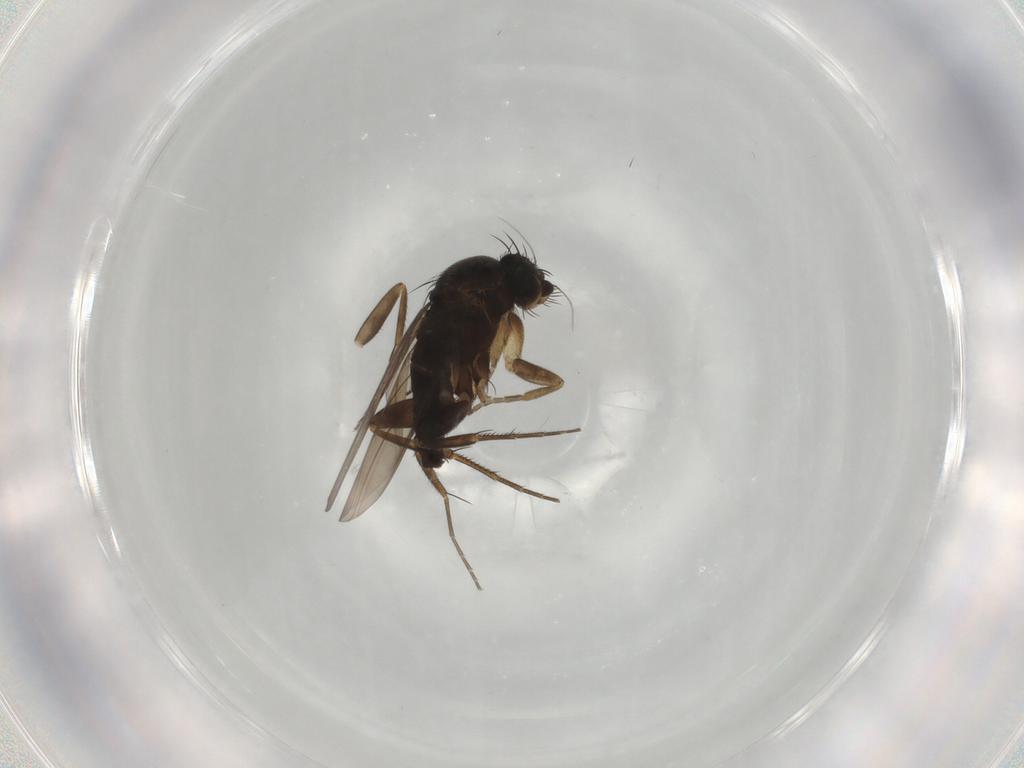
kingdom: Animalia
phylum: Arthropoda
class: Insecta
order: Diptera
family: Phoridae
